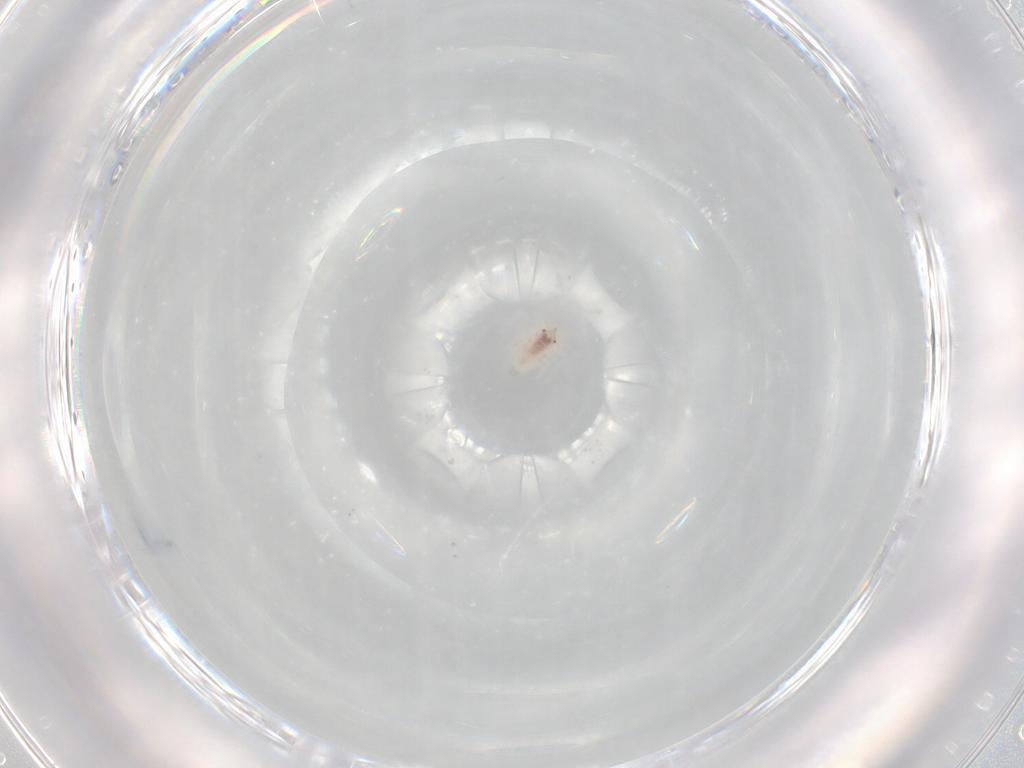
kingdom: Animalia
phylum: Arthropoda
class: Insecta
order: Neuroptera
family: Coniopterygidae
